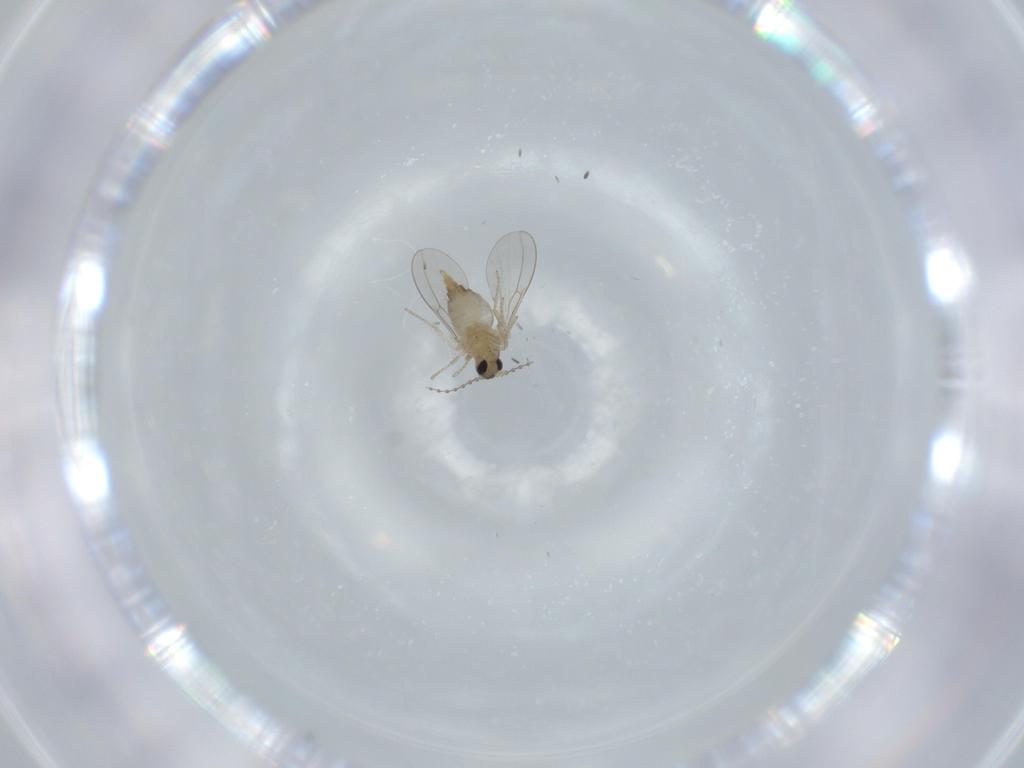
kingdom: Animalia
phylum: Arthropoda
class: Insecta
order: Diptera
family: Cecidomyiidae
